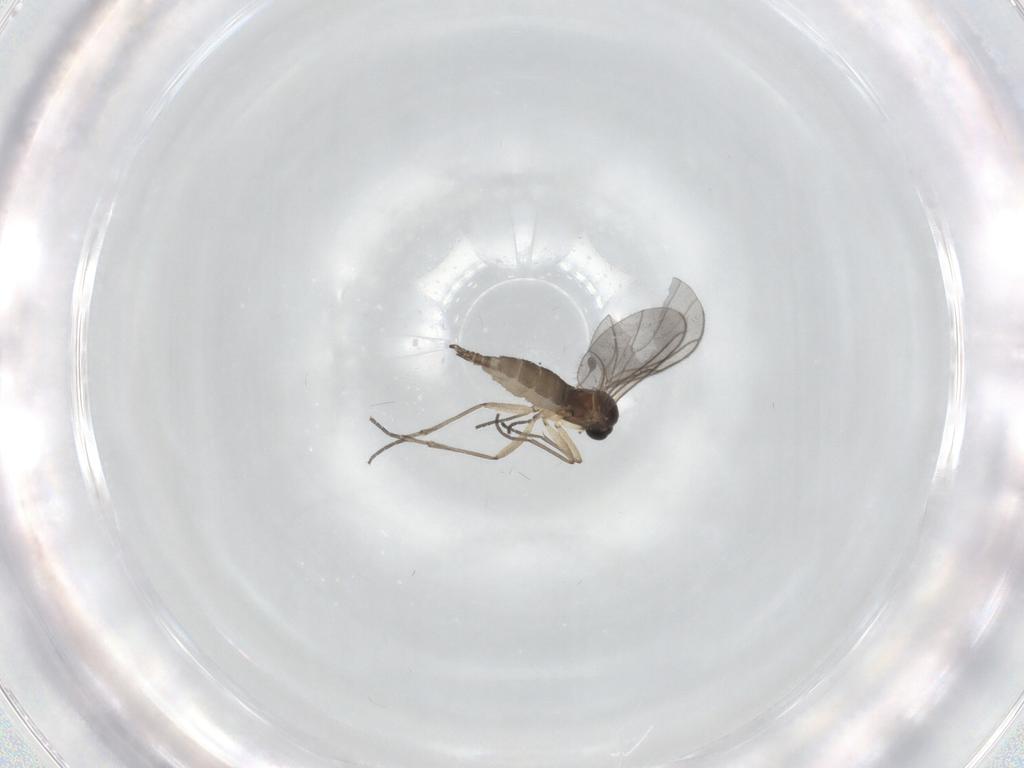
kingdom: Animalia
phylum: Arthropoda
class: Insecta
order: Diptera
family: Sciaridae
